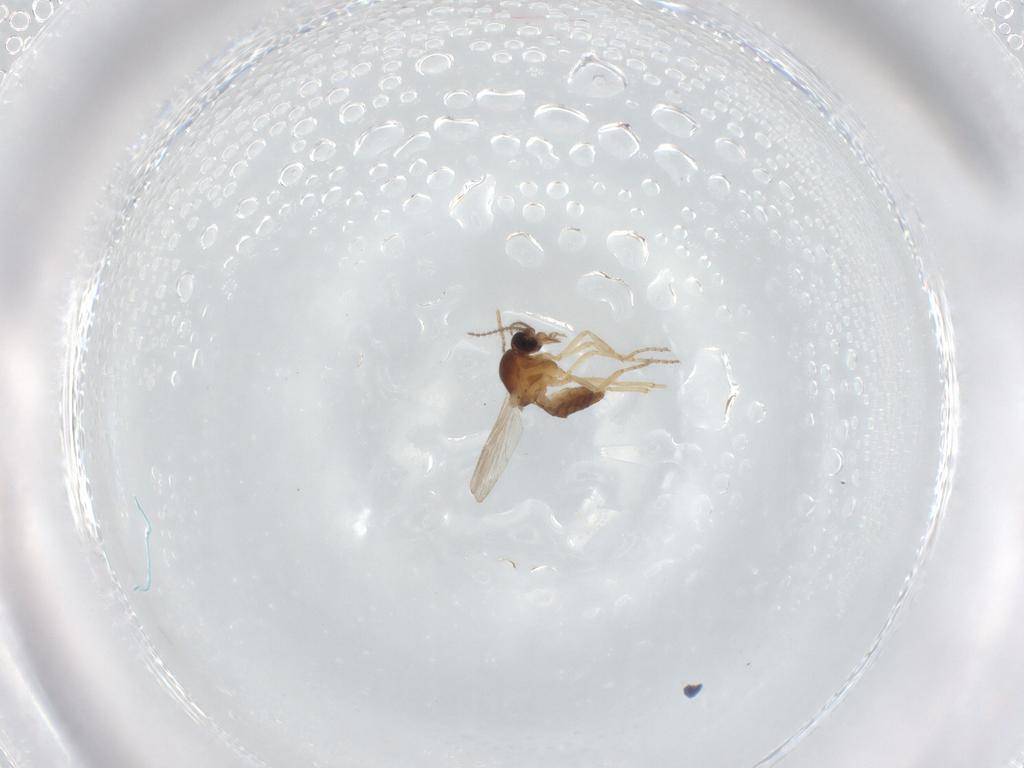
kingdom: Animalia
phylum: Arthropoda
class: Insecta
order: Diptera
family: Ceratopogonidae
